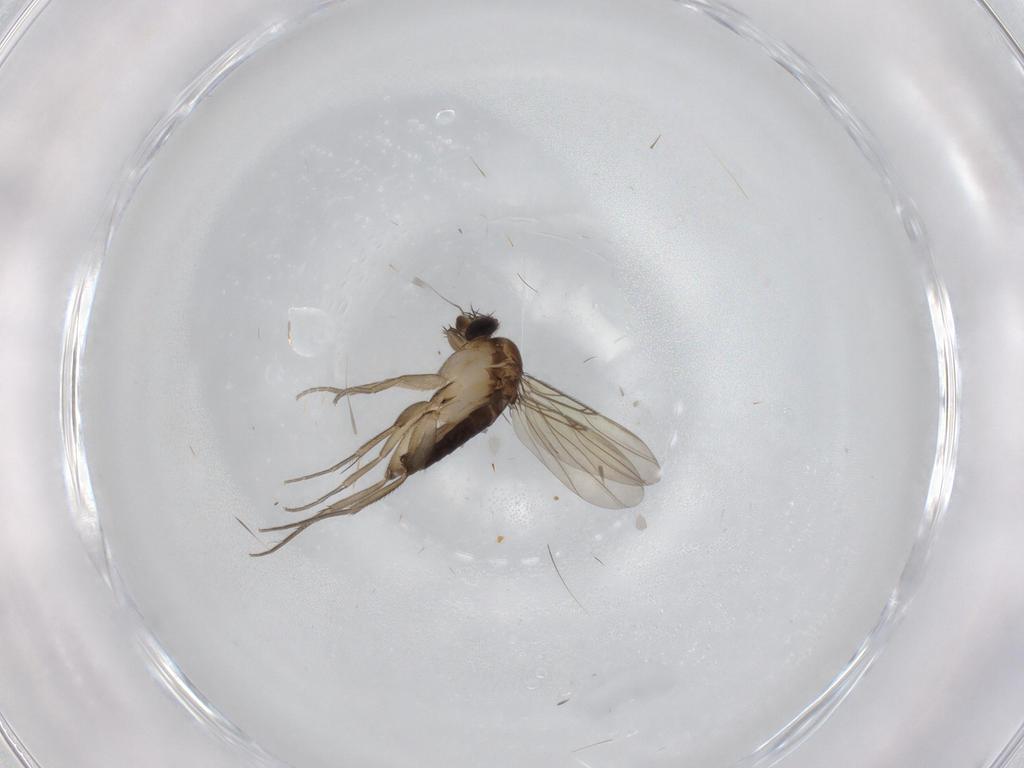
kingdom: Animalia
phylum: Arthropoda
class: Insecta
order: Diptera
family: Phoridae
